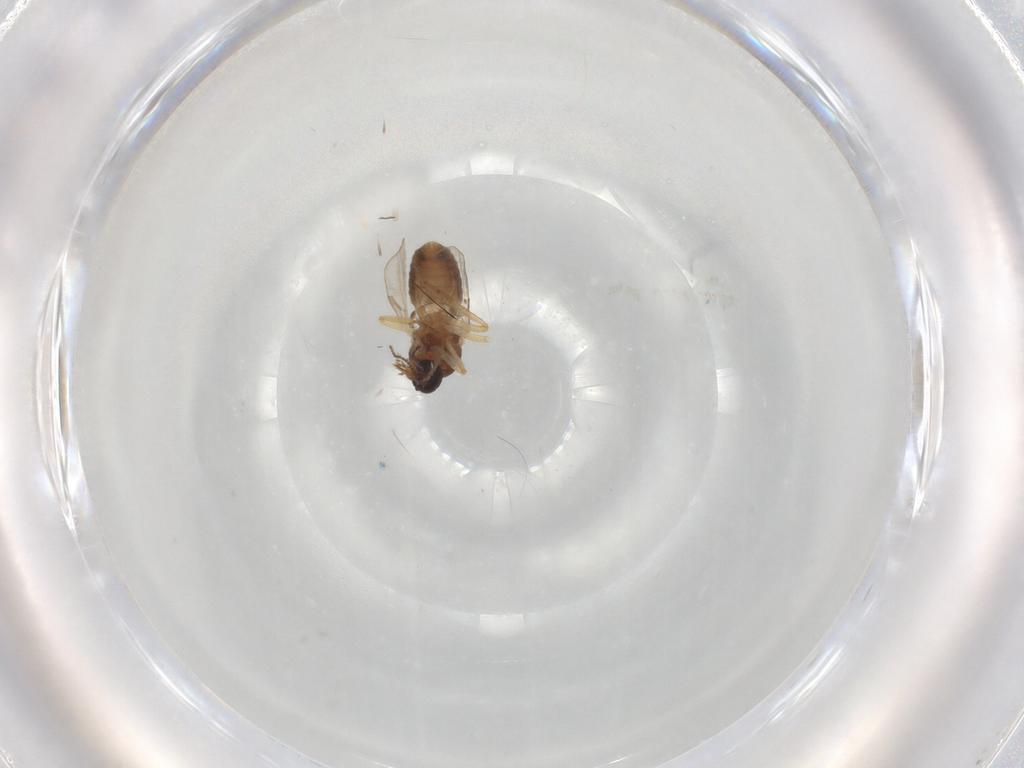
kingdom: Animalia
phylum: Arthropoda
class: Insecta
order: Diptera
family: Ceratopogonidae
